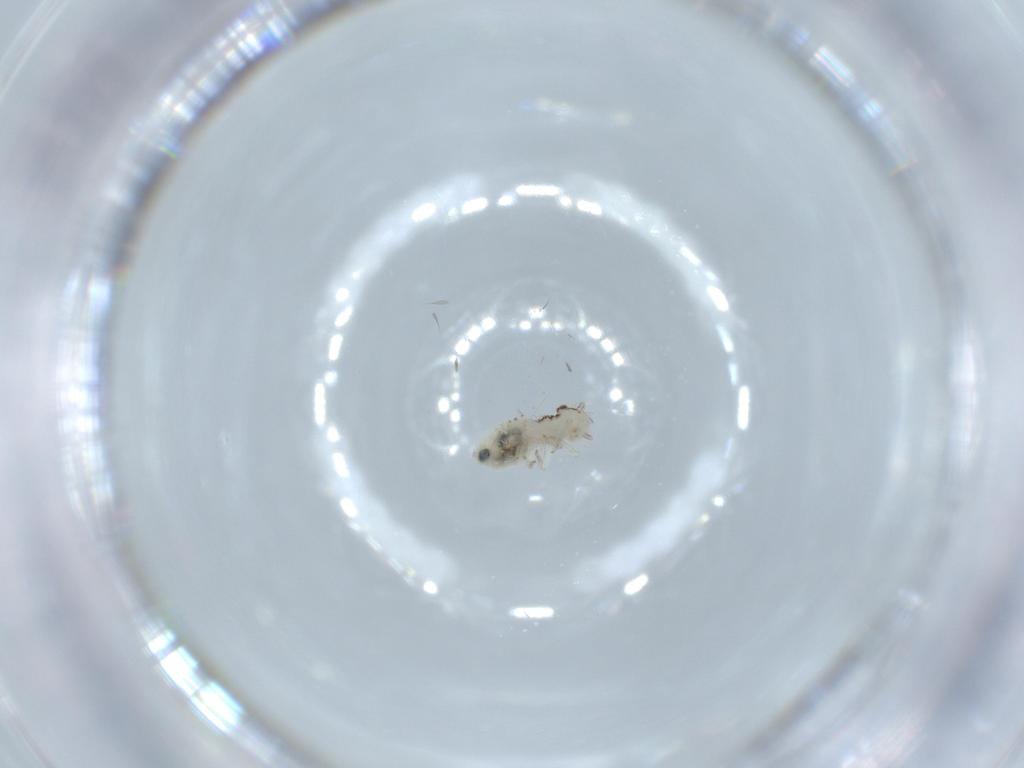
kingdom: Animalia
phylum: Arthropoda
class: Insecta
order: Psocodea
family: Pseudocaeciliidae
